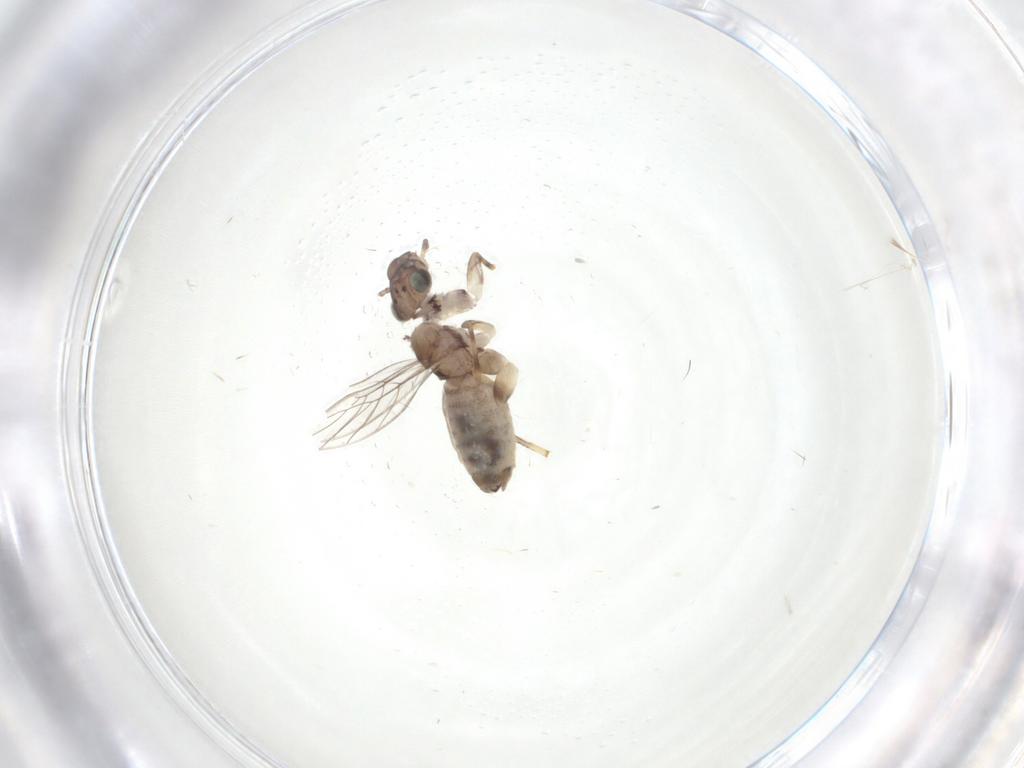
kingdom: Animalia
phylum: Arthropoda
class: Insecta
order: Psocodea
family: Lepidopsocidae
